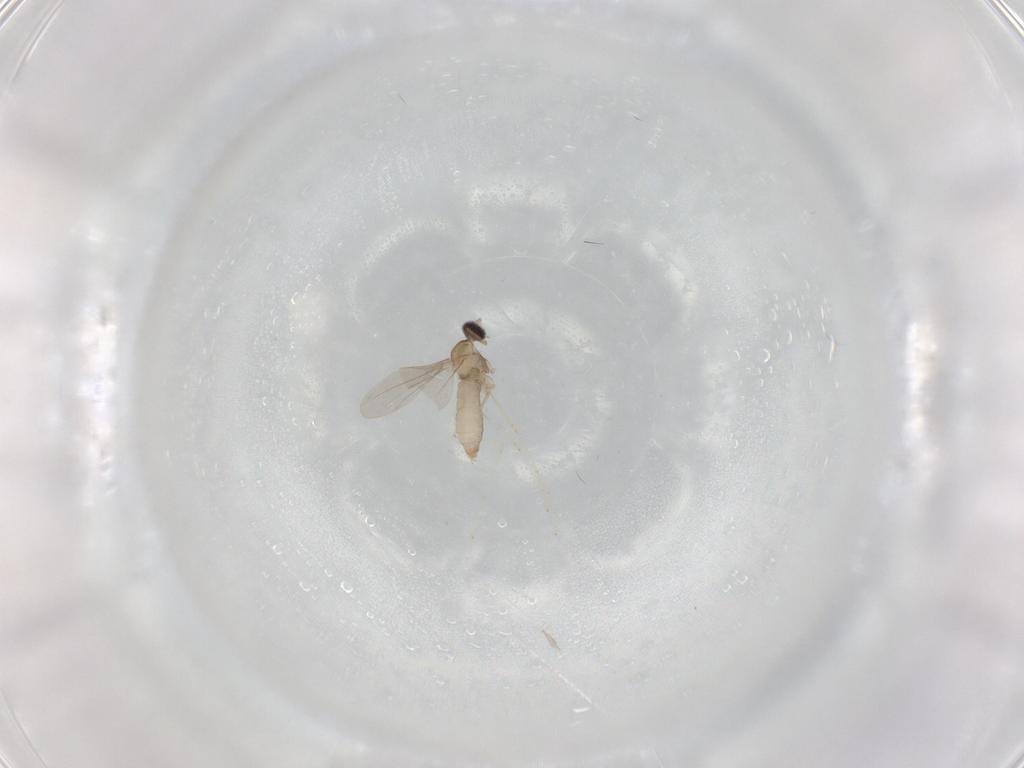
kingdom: Animalia
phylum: Arthropoda
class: Insecta
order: Diptera
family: Cecidomyiidae
